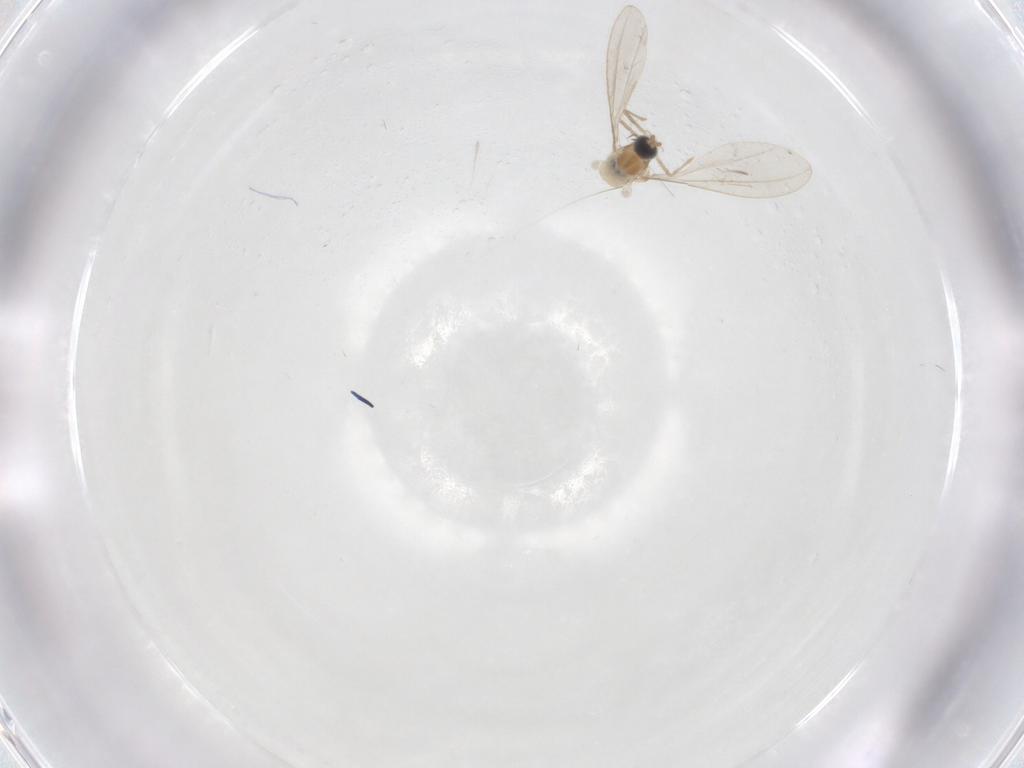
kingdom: Animalia
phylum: Arthropoda
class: Insecta
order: Diptera
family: Cecidomyiidae
